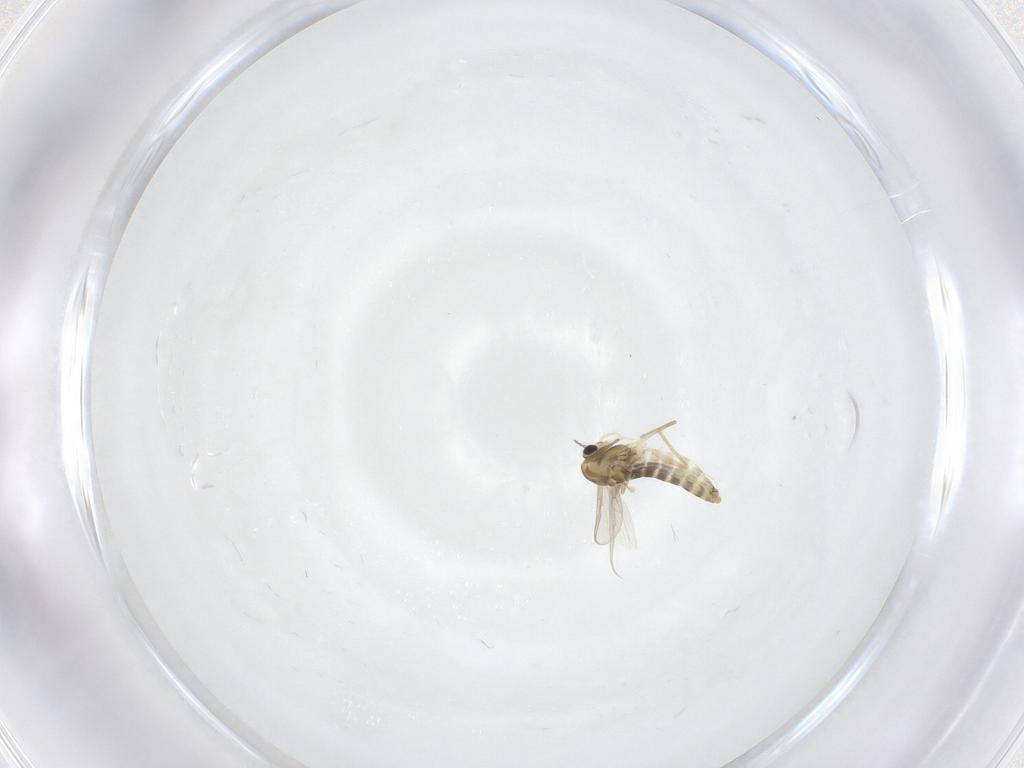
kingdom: Animalia
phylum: Arthropoda
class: Insecta
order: Diptera
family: Chironomidae
